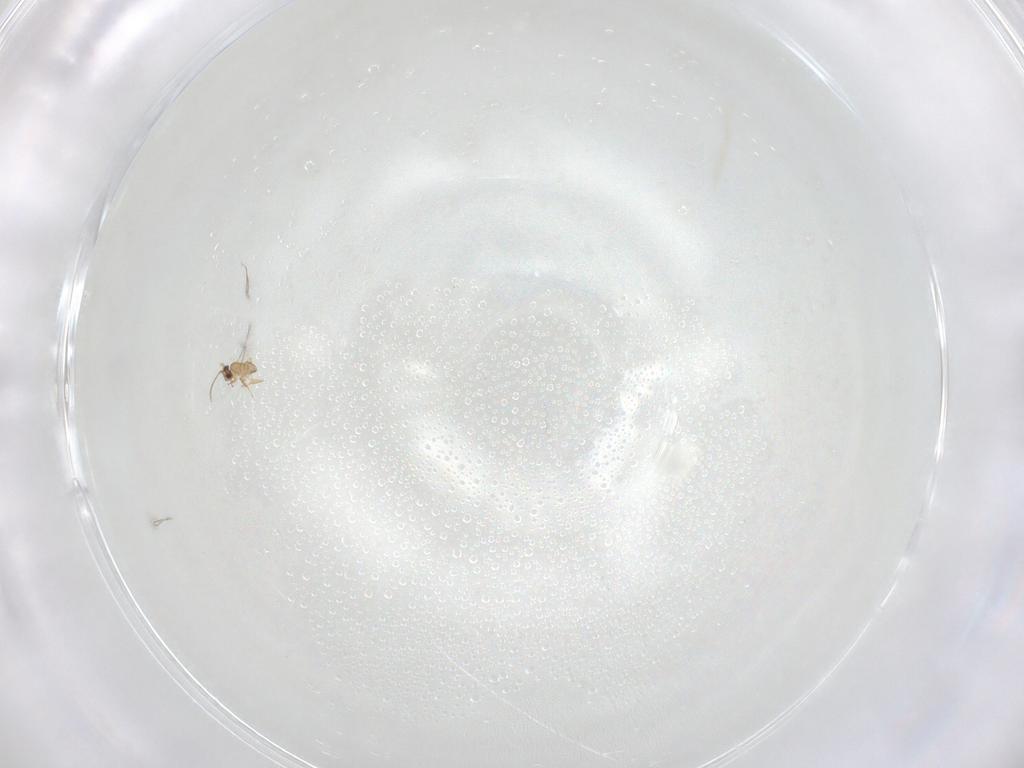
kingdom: Animalia
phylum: Arthropoda
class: Insecta
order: Hemiptera
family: Aleyrodidae
